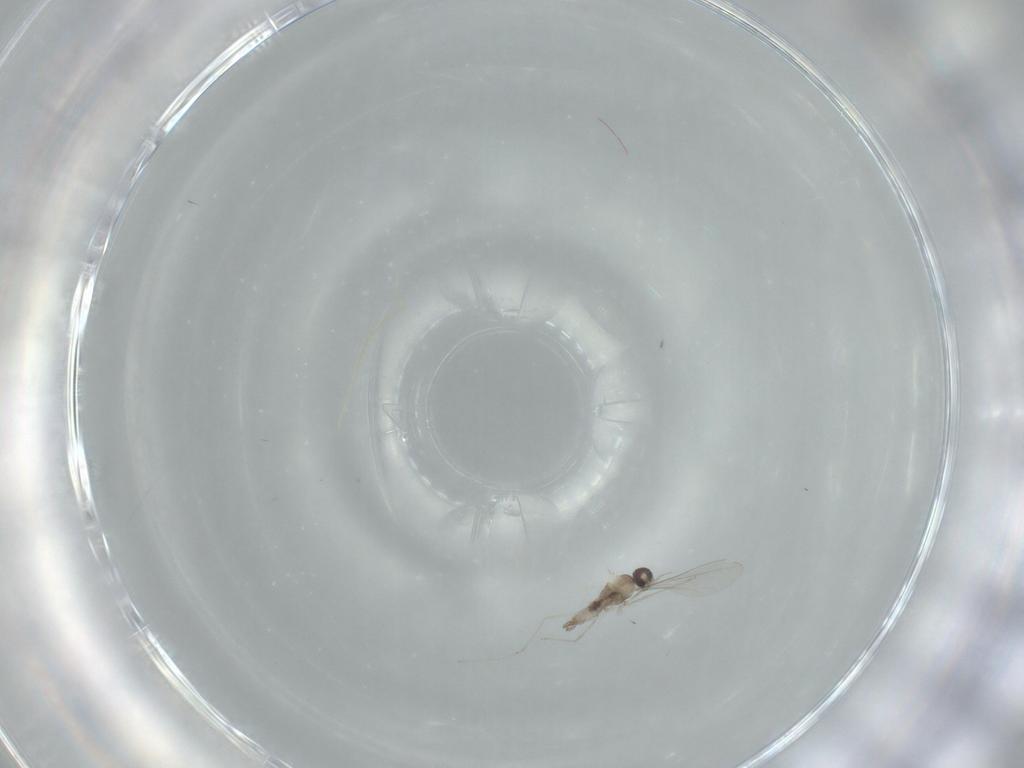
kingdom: Animalia
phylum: Arthropoda
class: Insecta
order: Diptera
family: Cecidomyiidae
